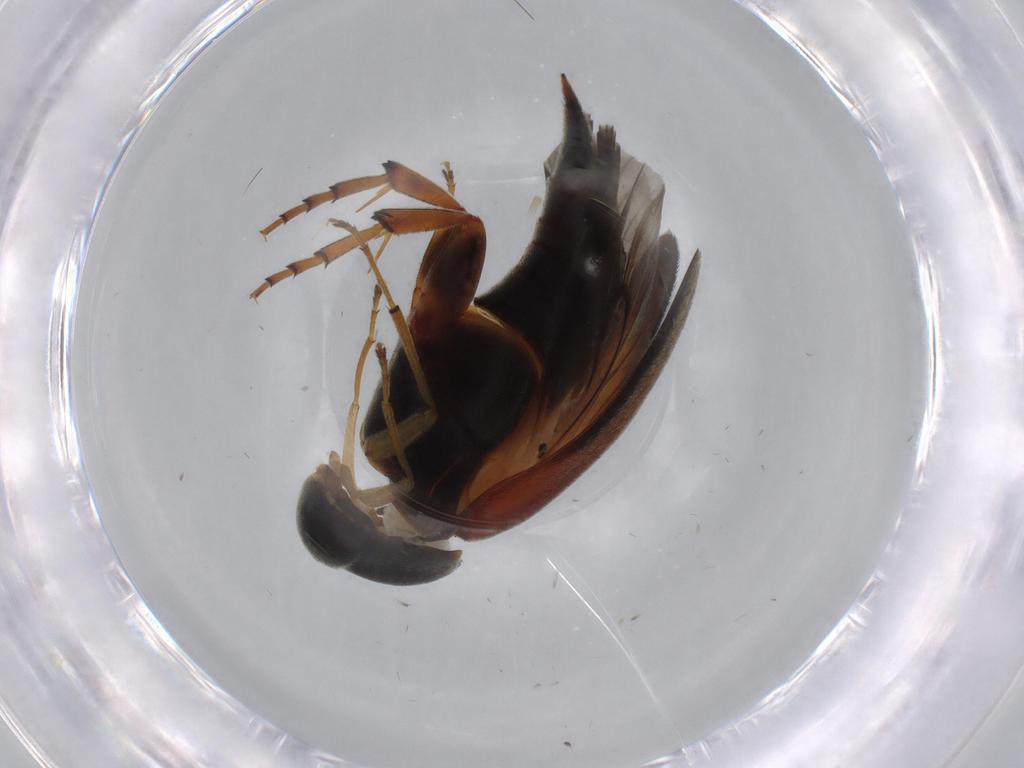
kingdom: Animalia
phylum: Arthropoda
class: Insecta
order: Coleoptera
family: Mordellidae
